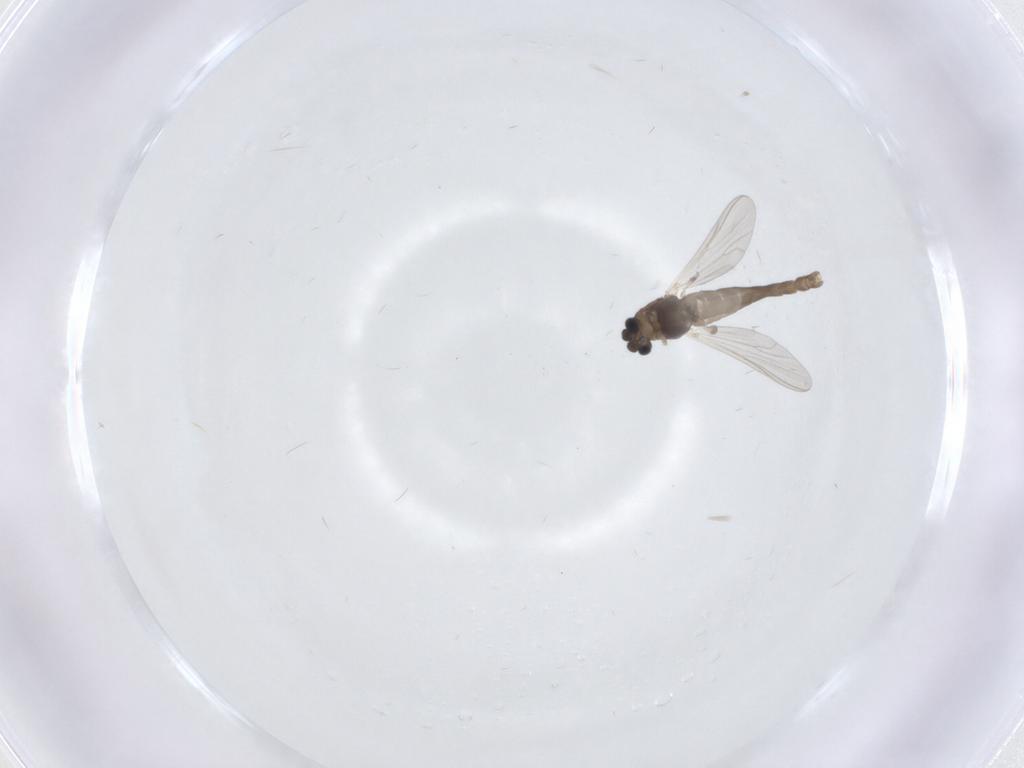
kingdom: Animalia
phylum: Arthropoda
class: Insecta
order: Diptera
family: Chironomidae
